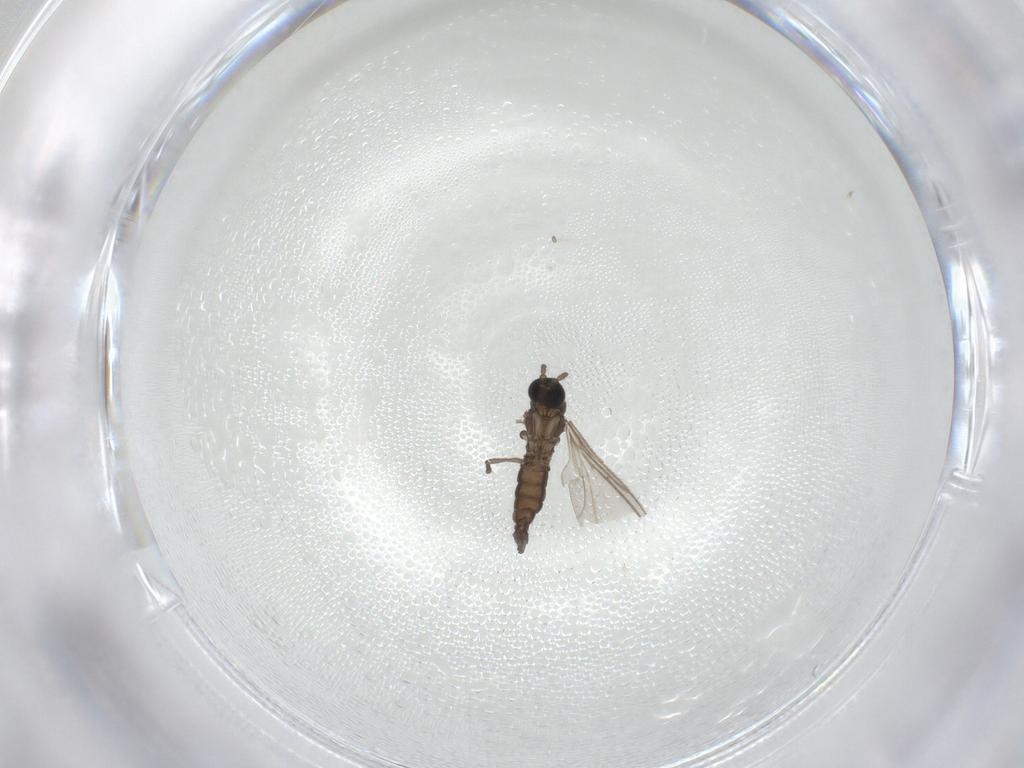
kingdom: Animalia
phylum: Arthropoda
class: Insecta
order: Diptera
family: Sciaridae
